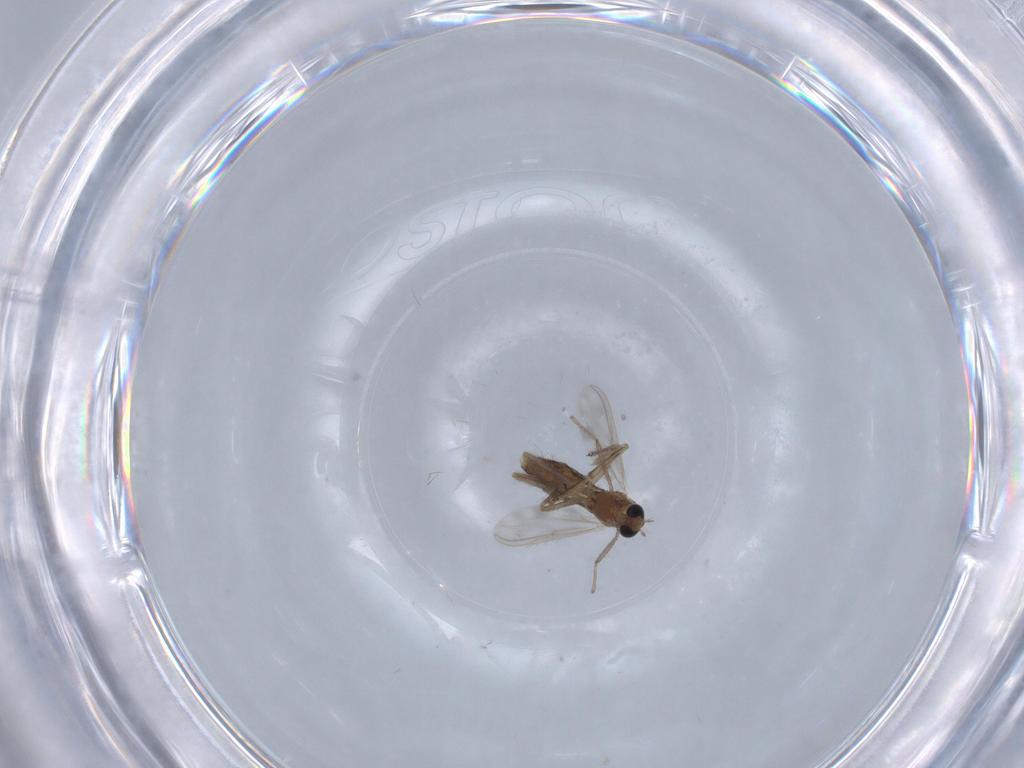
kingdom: Animalia
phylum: Arthropoda
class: Insecta
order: Diptera
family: Chironomidae
